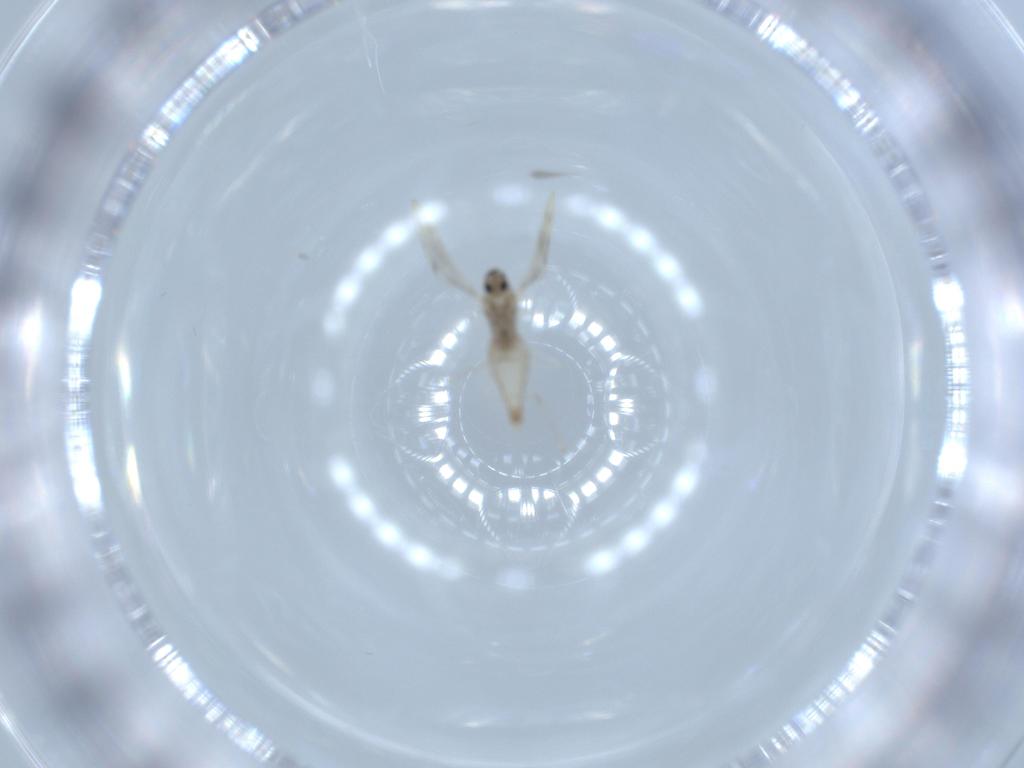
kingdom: Animalia
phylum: Arthropoda
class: Insecta
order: Diptera
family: Cecidomyiidae
